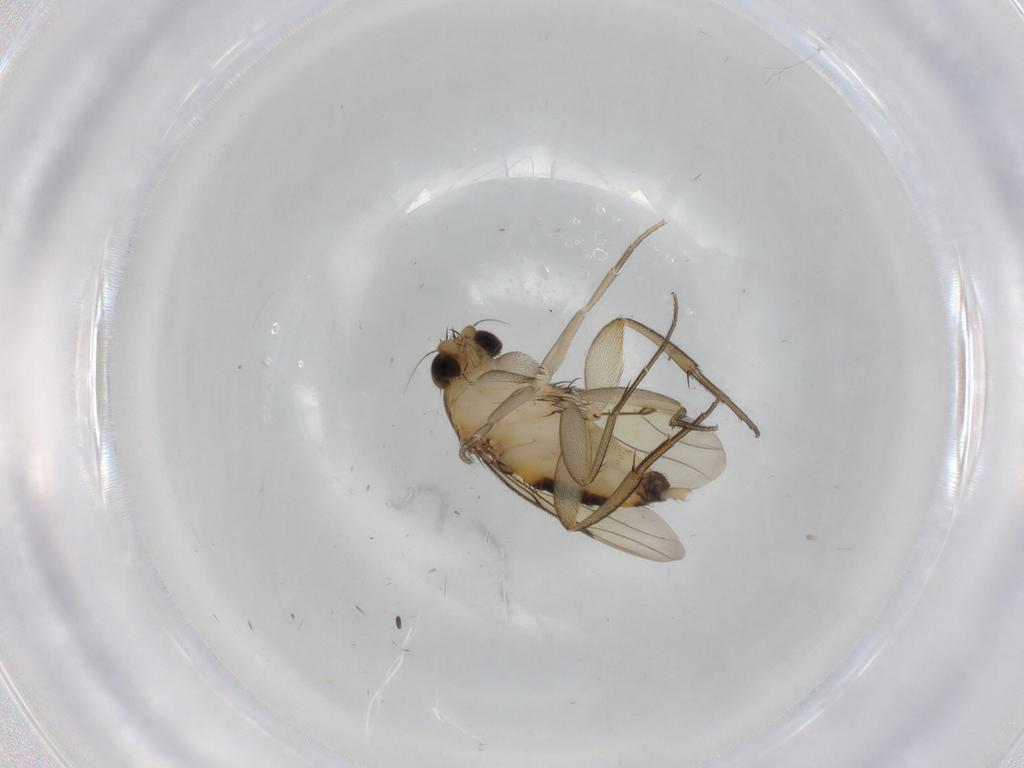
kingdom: Animalia
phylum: Arthropoda
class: Insecta
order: Diptera
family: Phoridae
